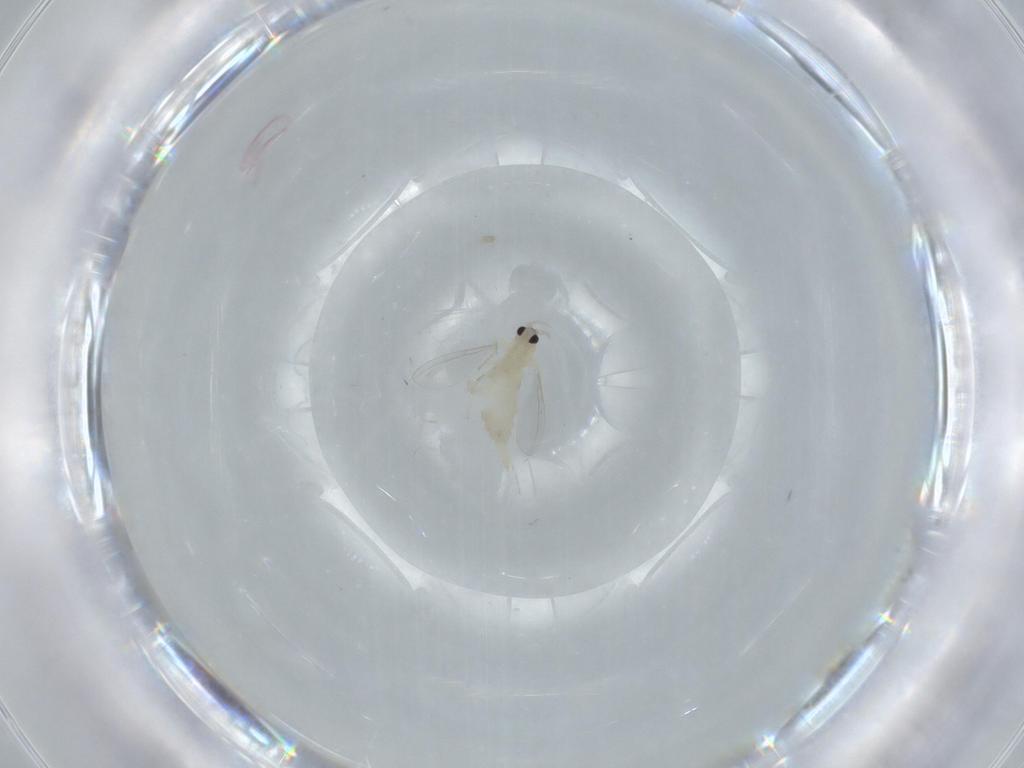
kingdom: Animalia
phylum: Arthropoda
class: Insecta
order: Diptera
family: Cecidomyiidae
